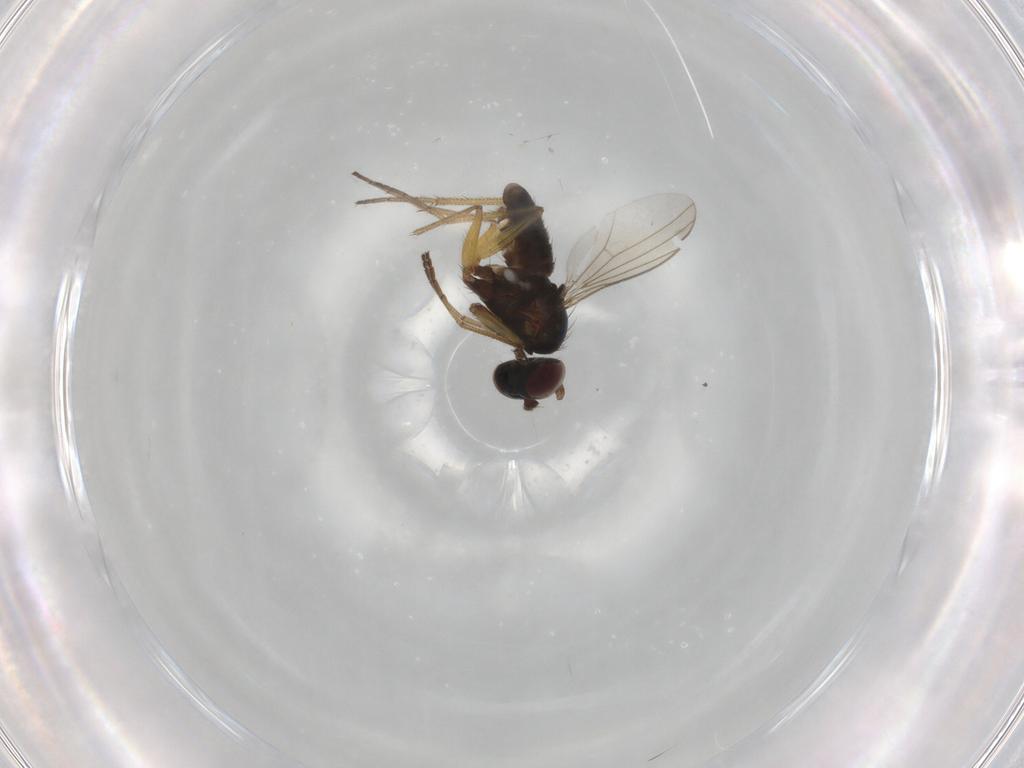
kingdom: Animalia
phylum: Arthropoda
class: Insecta
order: Diptera
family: Dolichopodidae
